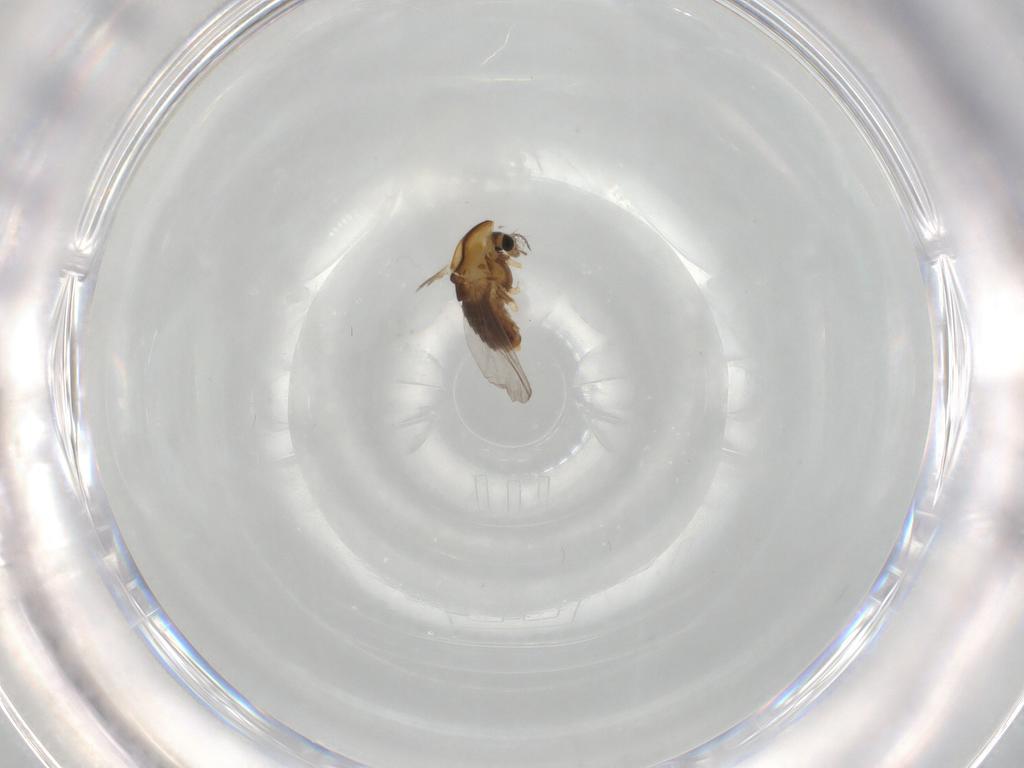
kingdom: Animalia
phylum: Arthropoda
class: Insecta
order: Diptera
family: Chironomidae
